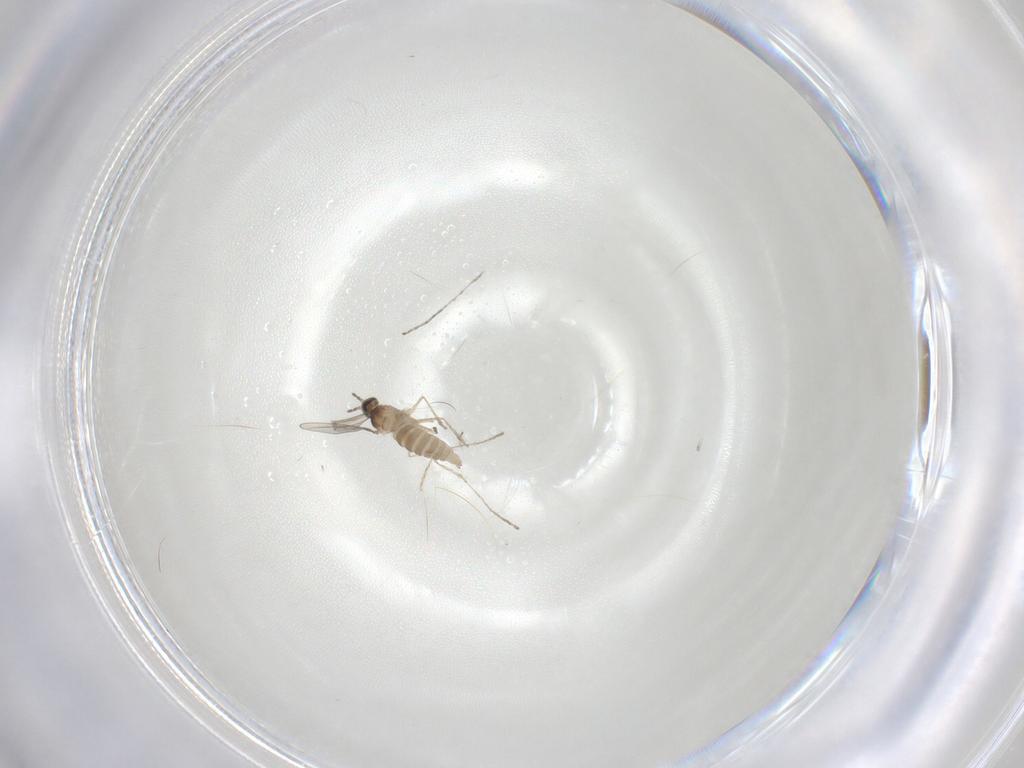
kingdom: Animalia
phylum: Arthropoda
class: Insecta
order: Diptera
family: Cecidomyiidae
